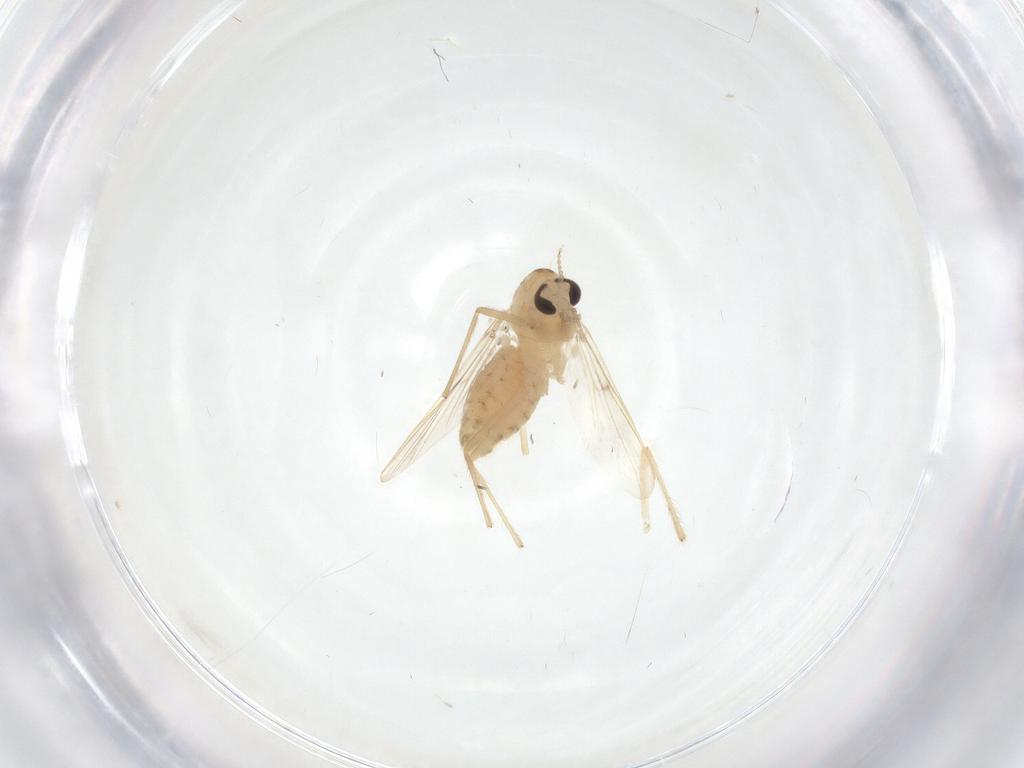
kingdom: Animalia
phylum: Arthropoda
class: Insecta
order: Diptera
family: Chironomidae
